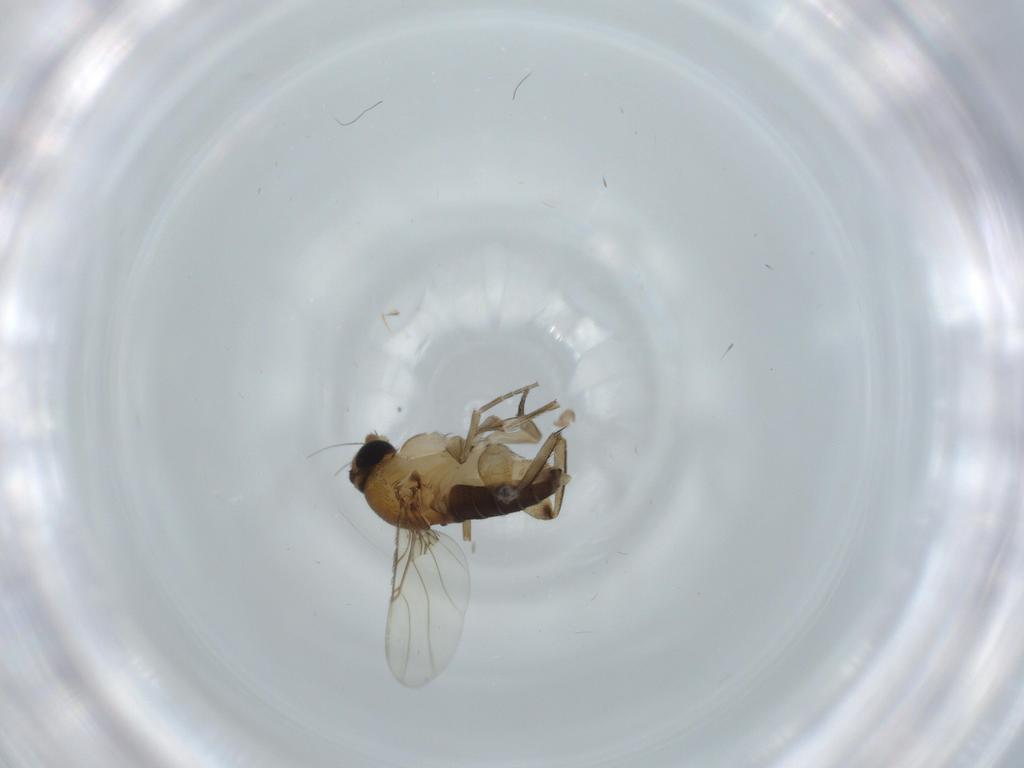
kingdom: Animalia
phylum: Arthropoda
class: Insecta
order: Diptera
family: Phoridae
